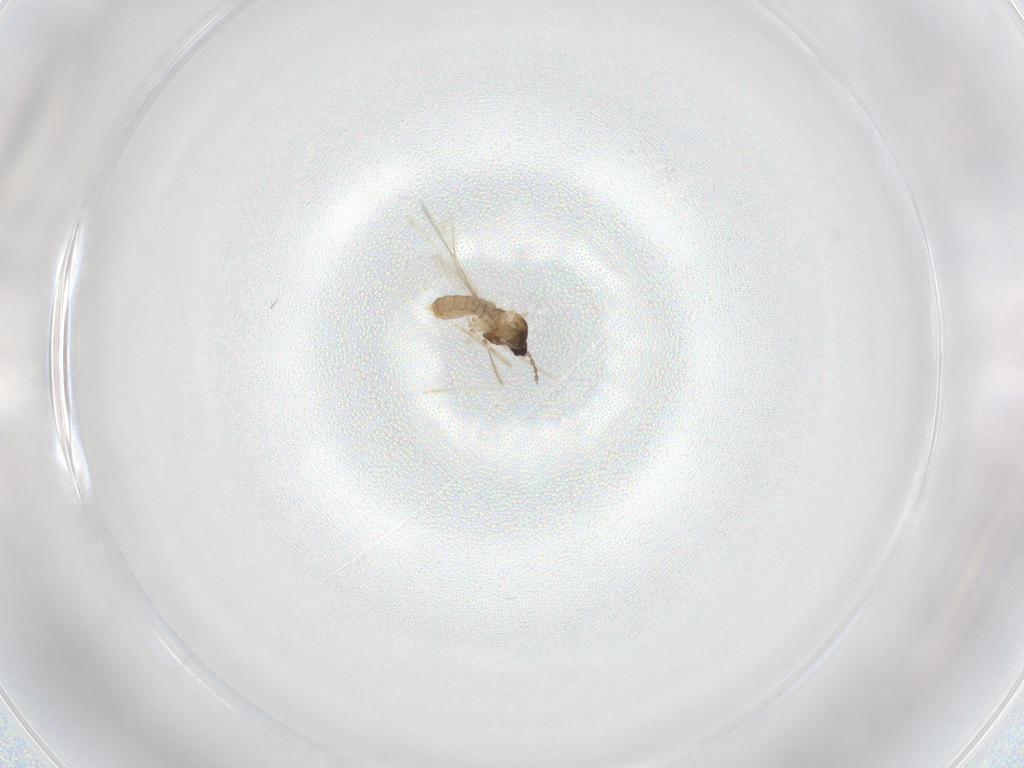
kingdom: Animalia
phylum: Arthropoda
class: Insecta
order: Diptera
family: Cecidomyiidae
